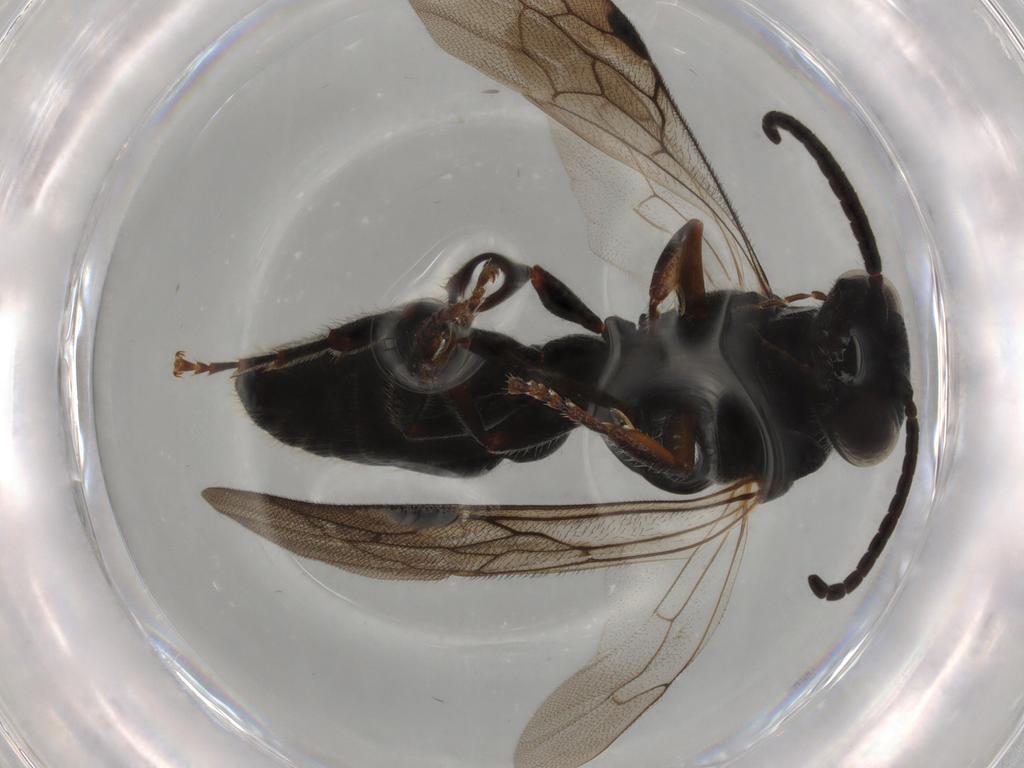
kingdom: Animalia
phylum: Arthropoda
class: Insecta
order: Hymenoptera
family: Tiphiidae
